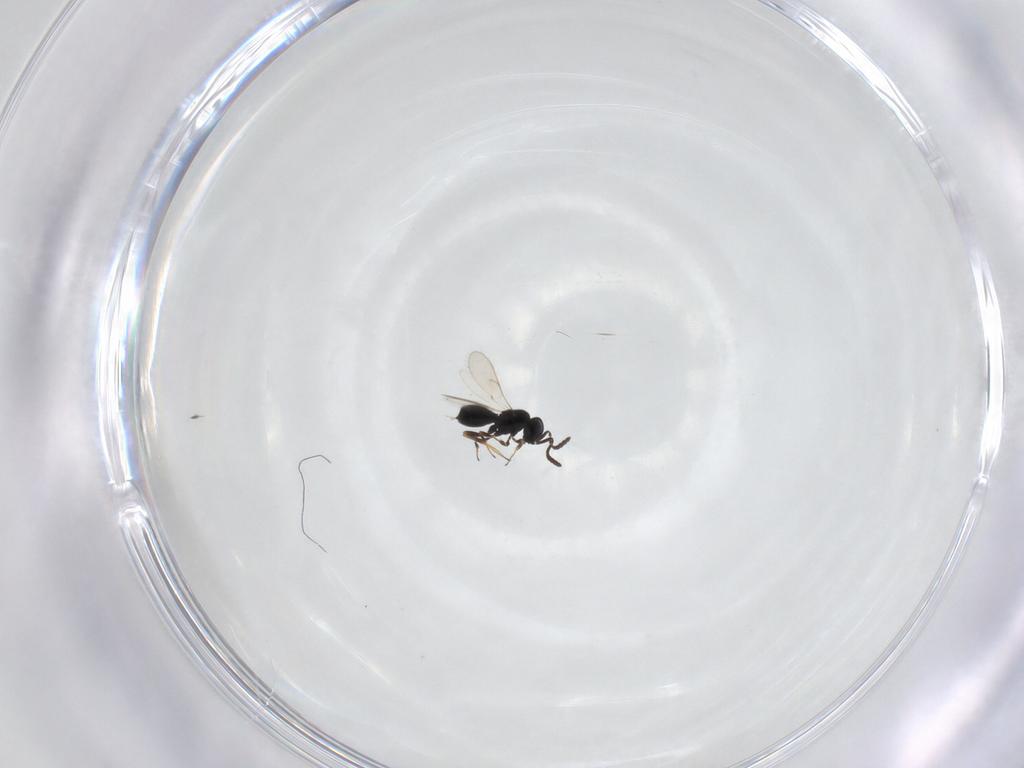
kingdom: Animalia
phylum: Arthropoda
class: Insecta
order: Hymenoptera
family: Scelionidae
